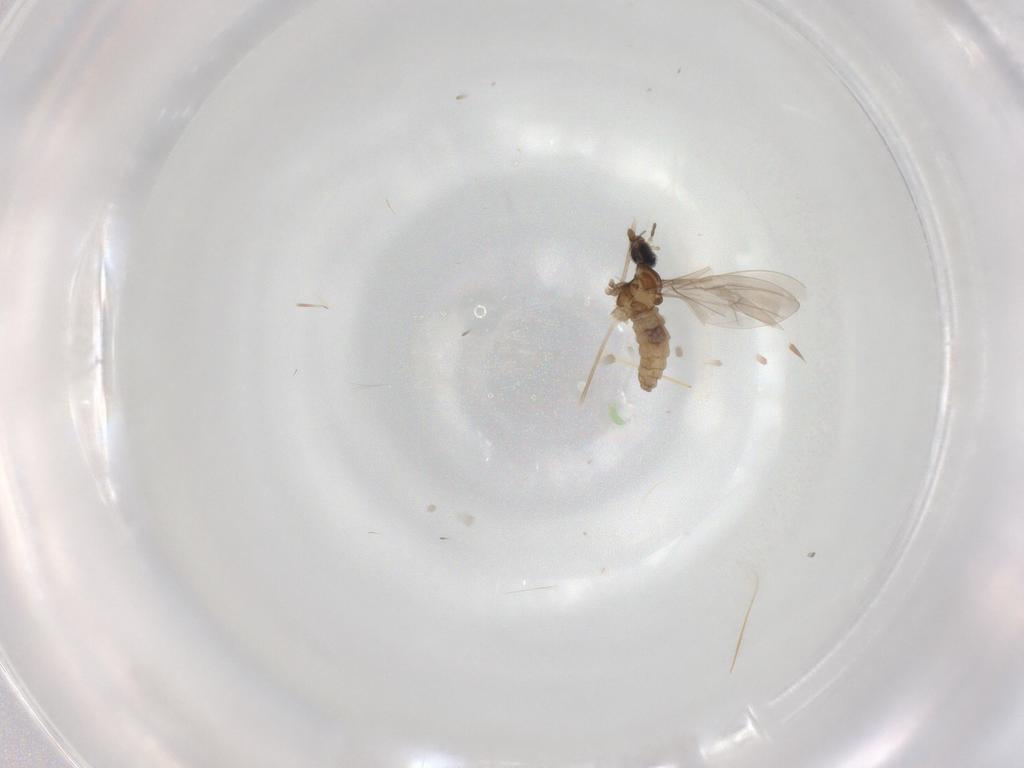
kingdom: Animalia
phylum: Arthropoda
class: Insecta
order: Diptera
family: Cecidomyiidae
